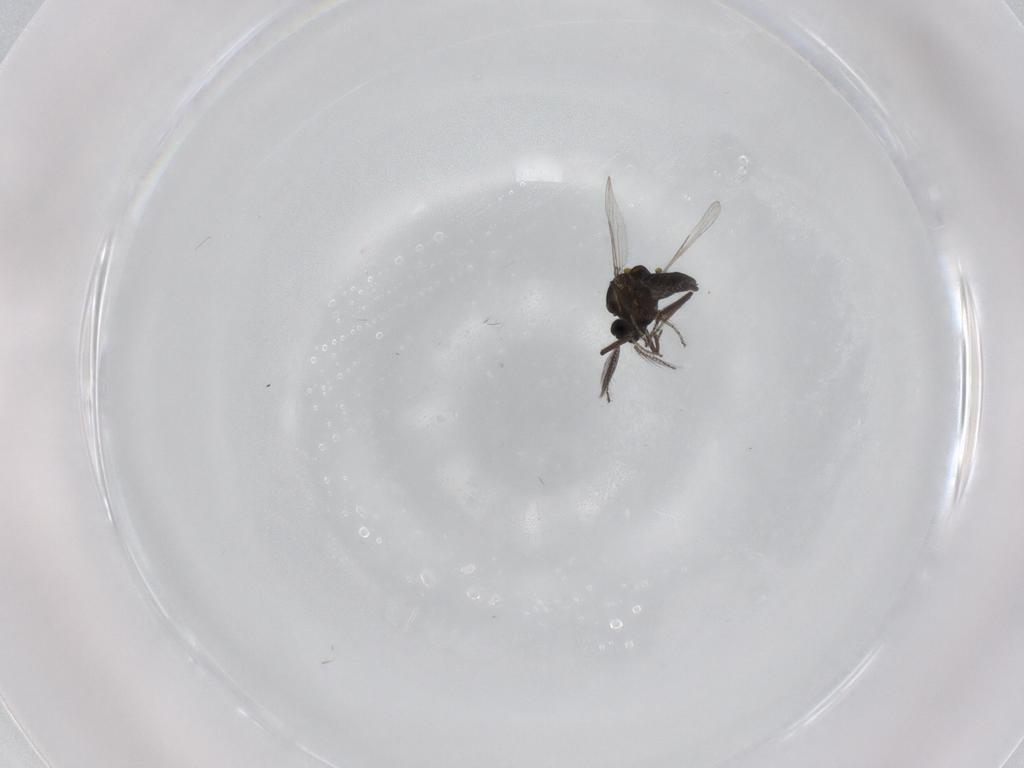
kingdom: Animalia
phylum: Arthropoda
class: Insecta
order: Diptera
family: Ceratopogonidae
